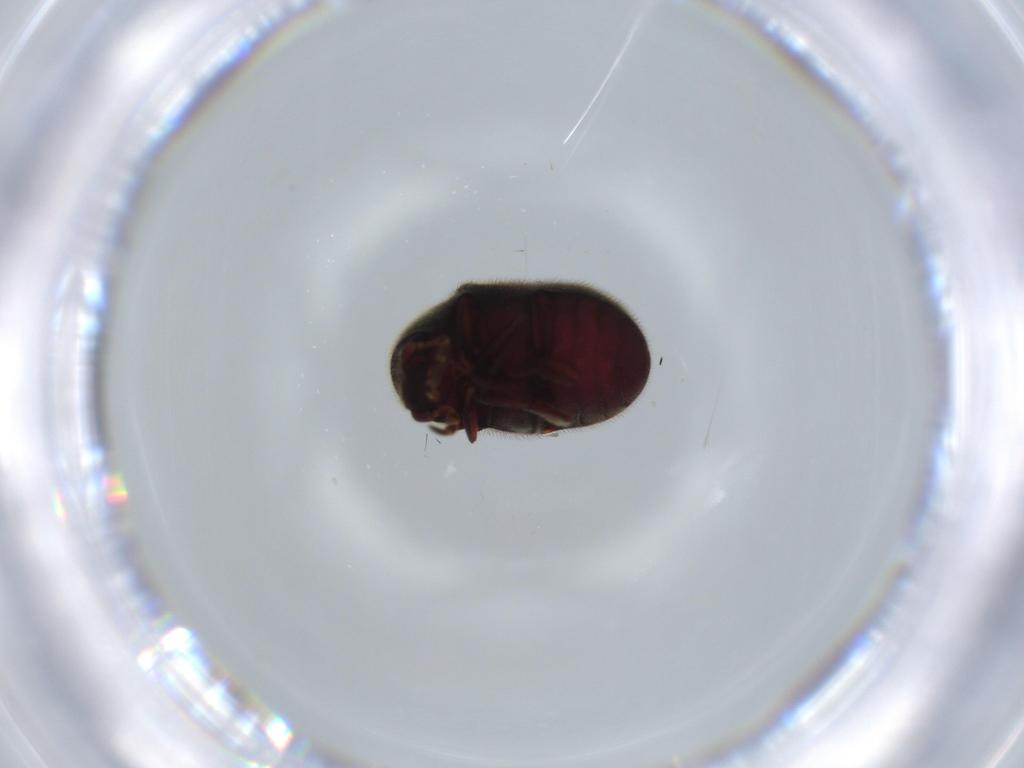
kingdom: Animalia
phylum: Arthropoda
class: Insecta
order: Coleoptera
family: Ptinidae
